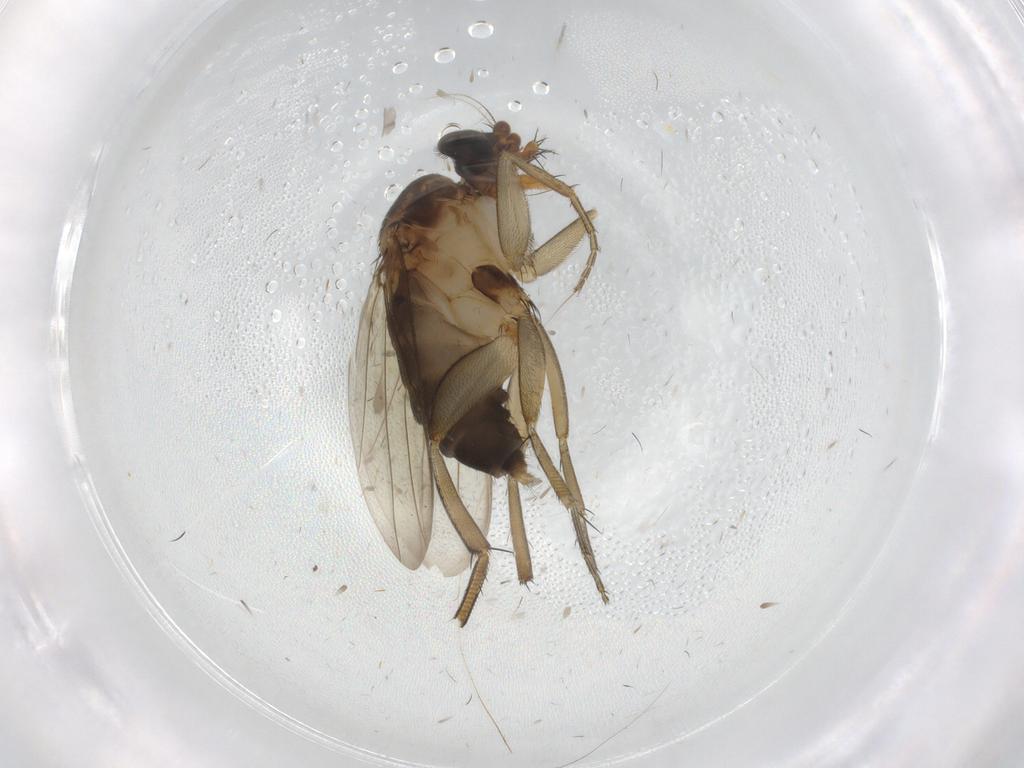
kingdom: Animalia
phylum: Arthropoda
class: Insecta
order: Diptera
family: Phoridae
